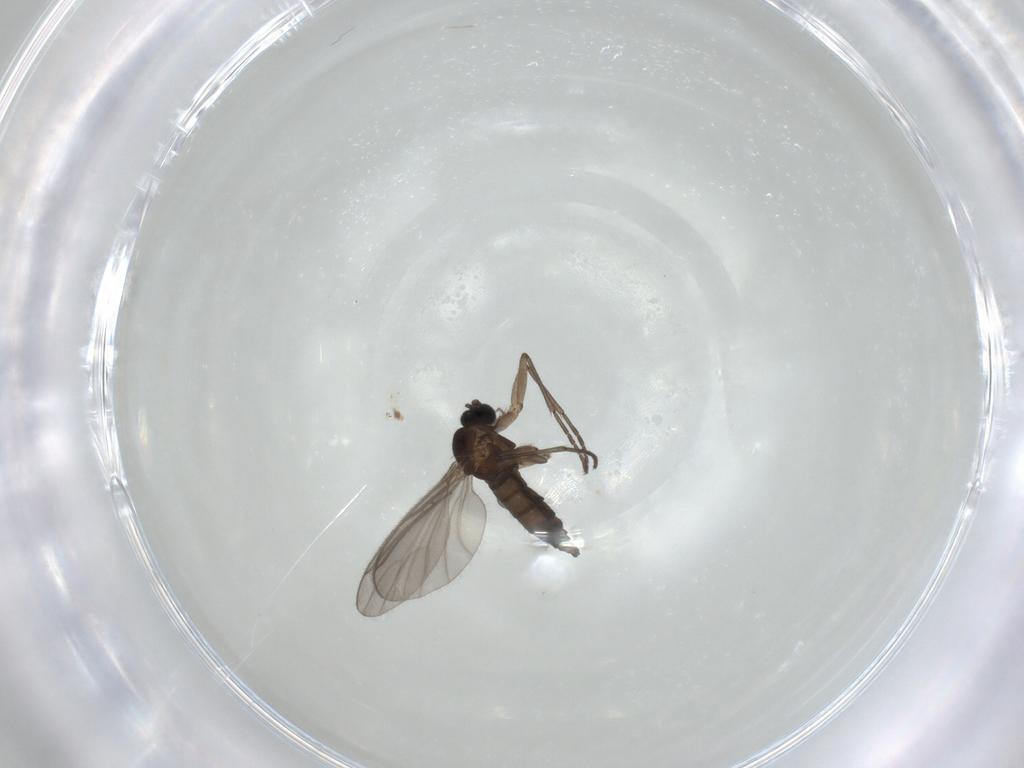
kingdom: Animalia
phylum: Arthropoda
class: Insecta
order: Diptera
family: Sciaridae
